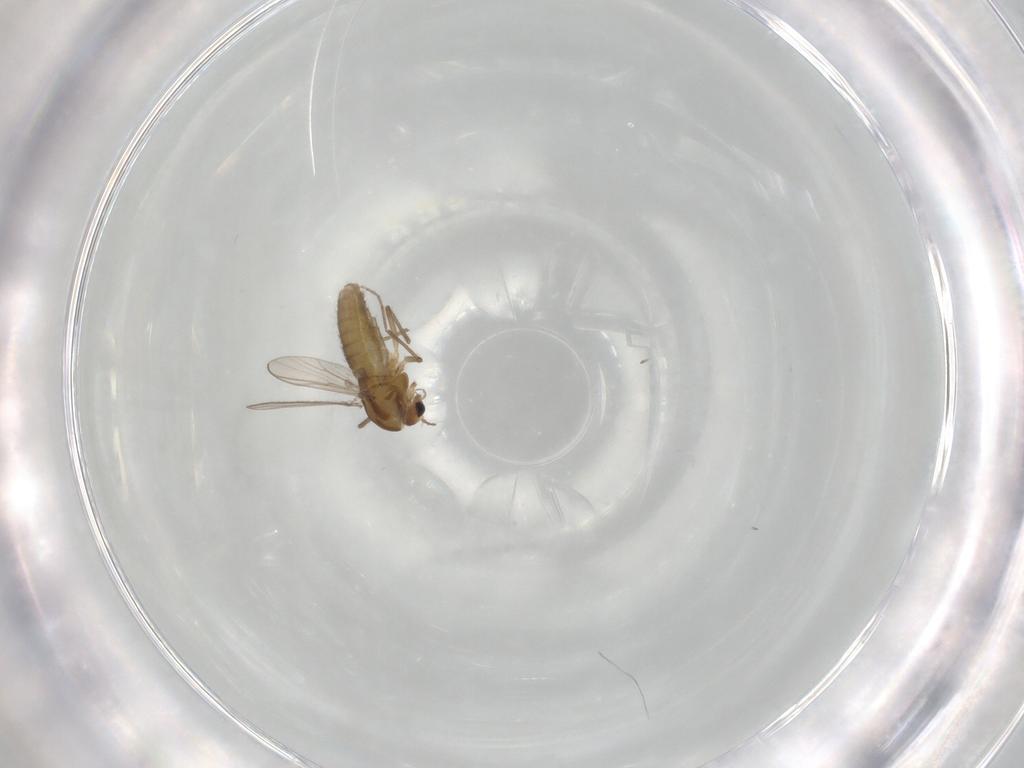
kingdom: Animalia
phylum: Arthropoda
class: Insecta
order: Diptera
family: Chironomidae
